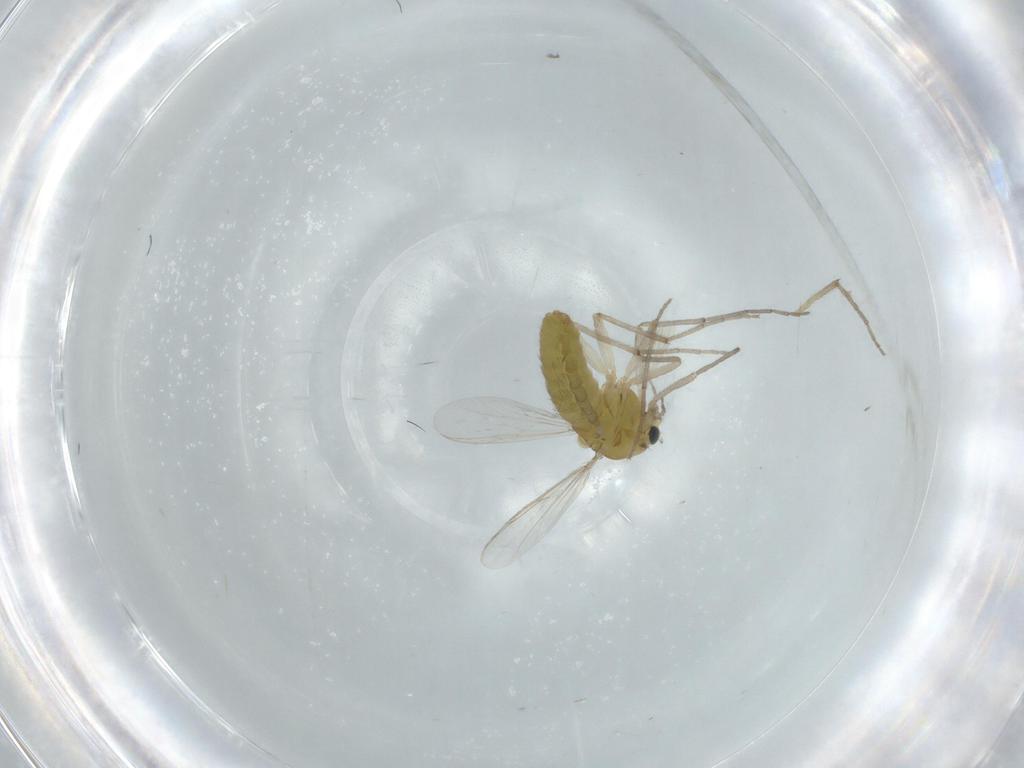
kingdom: Animalia
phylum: Arthropoda
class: Insecta
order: Diptera
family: Chironomidae
